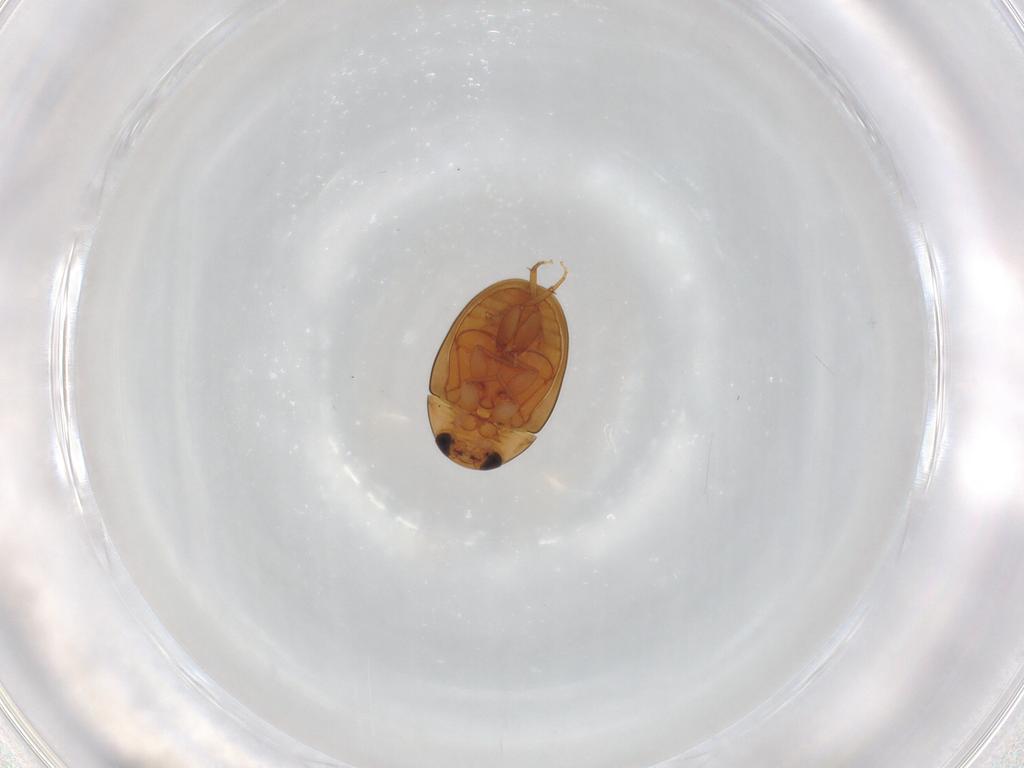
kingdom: Animalia
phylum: Arthropoda
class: Insecta
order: Coleoptera
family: Phalacridae
